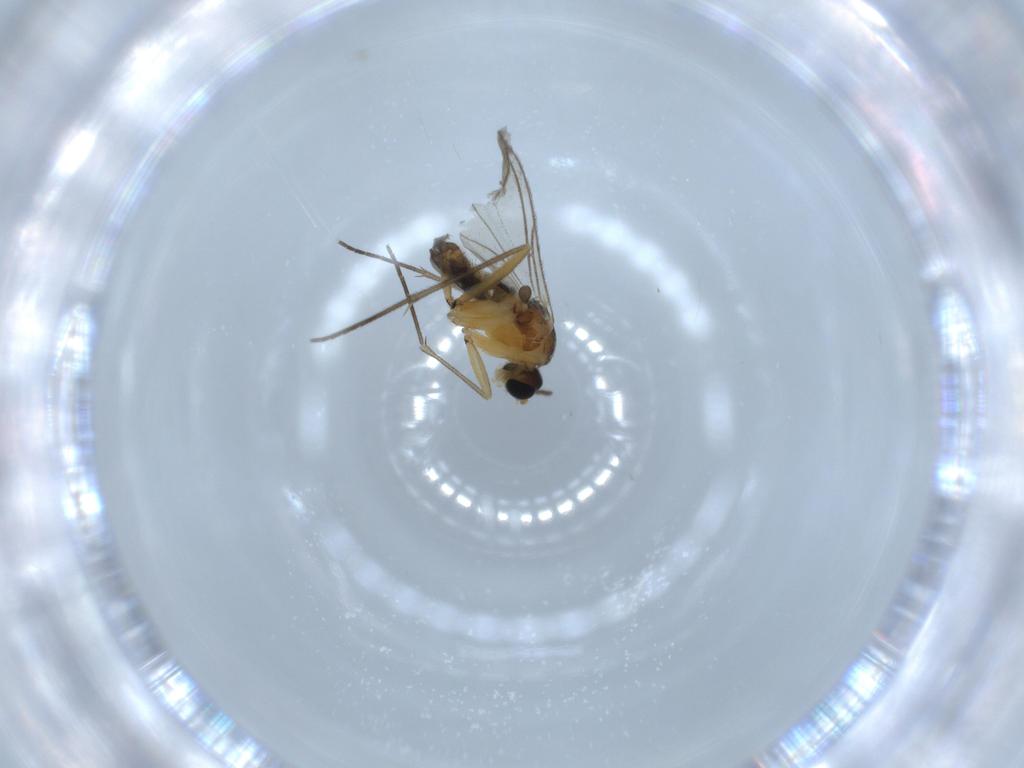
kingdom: Animalia
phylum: Arthropoda
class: Insecta
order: Diptera
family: Sciaridae
